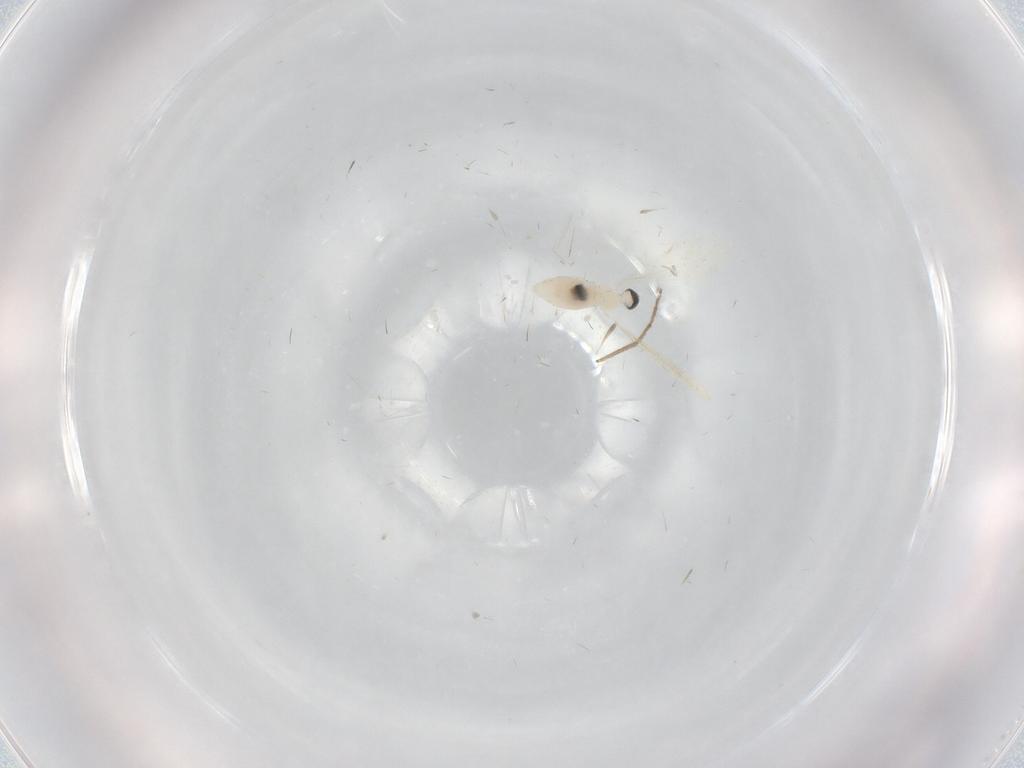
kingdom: Animalia
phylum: Arthropoda
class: Insecta
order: Diptera
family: Cecidomyiidae
